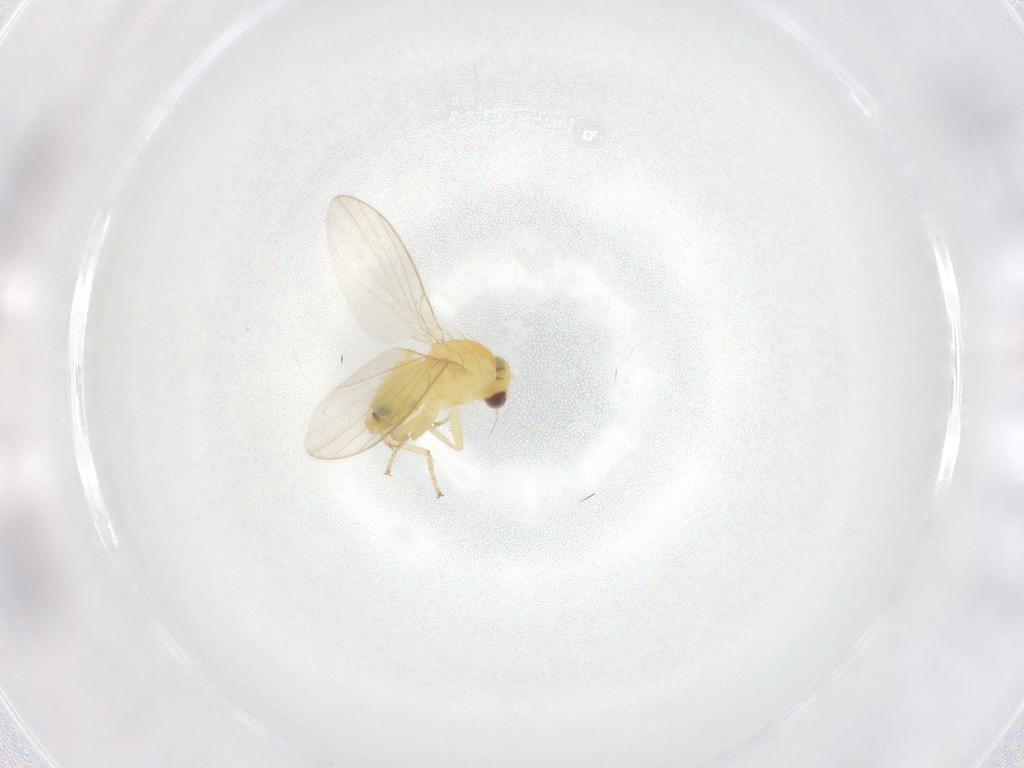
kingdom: Animalia
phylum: Arthropoda
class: Insecta
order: Diptera
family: Agromyzidae
